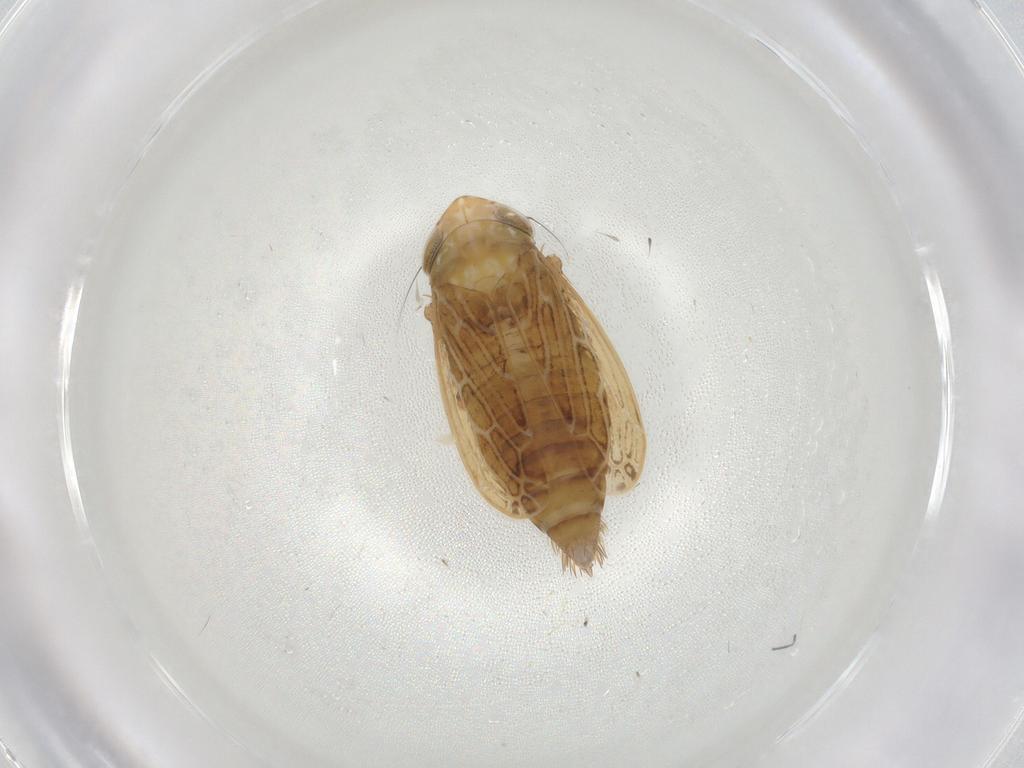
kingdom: Animalia
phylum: Arthropoda
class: Insecta
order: Hemiptera
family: Cicadellidae
